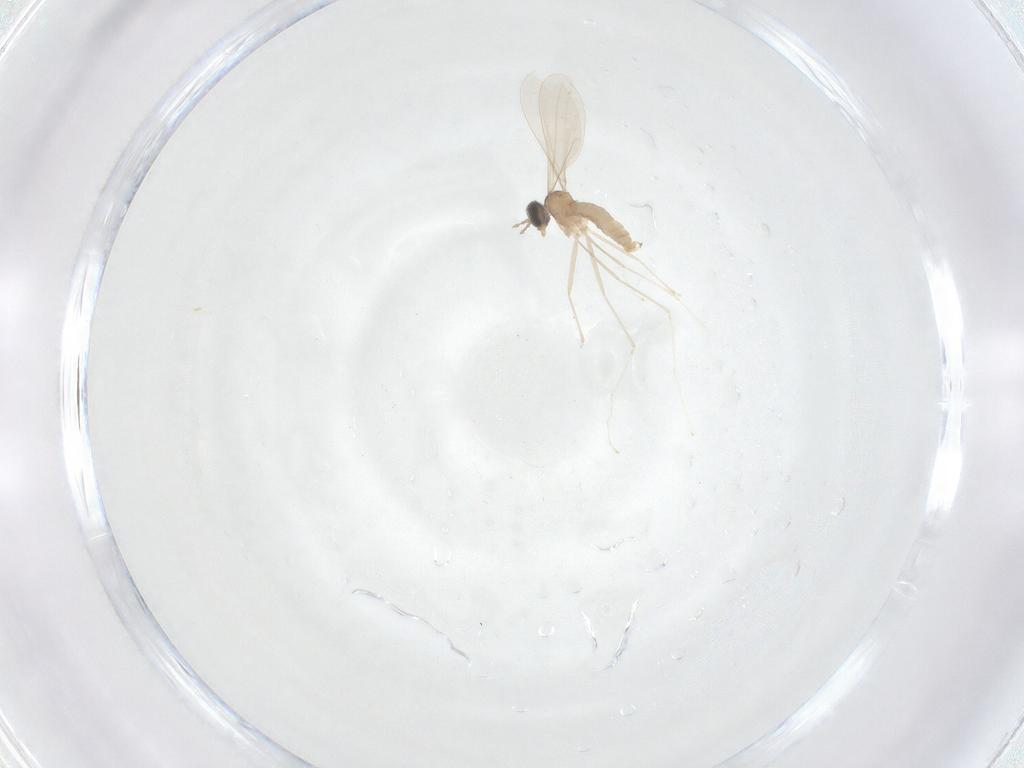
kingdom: Animalia
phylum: Arthropoda
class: Insecta
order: Diptera
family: Cecidomyiidae
